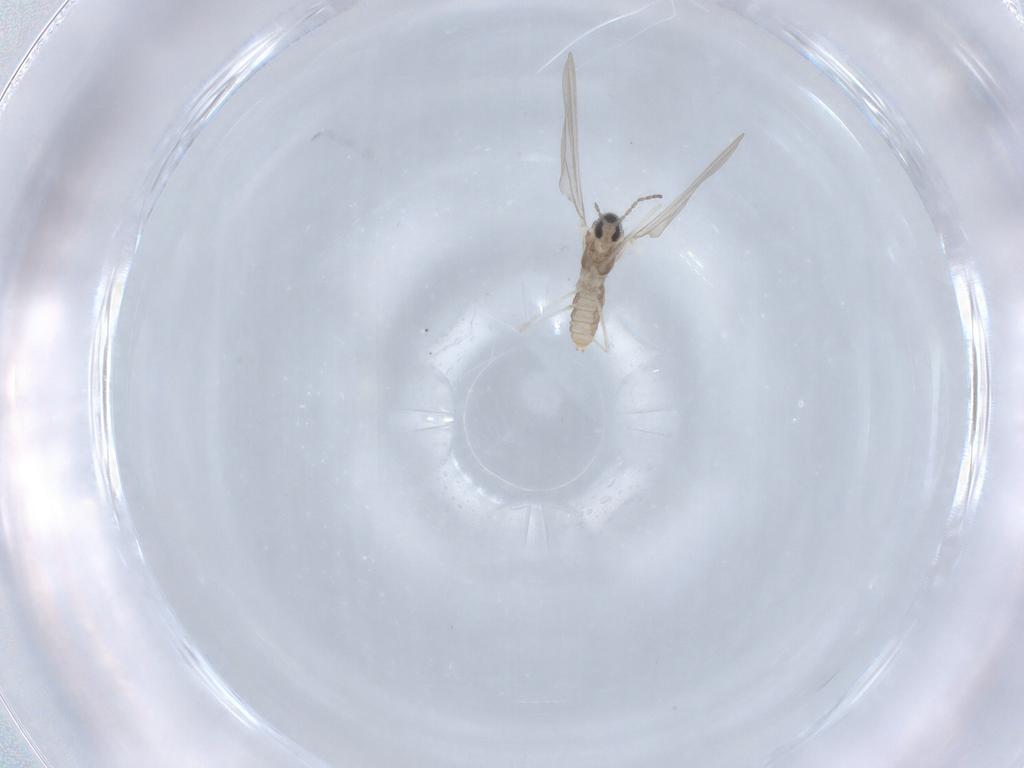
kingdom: Animalia
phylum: Arthropoda
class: Insecta
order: Diptera
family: Cecidomyiidae
